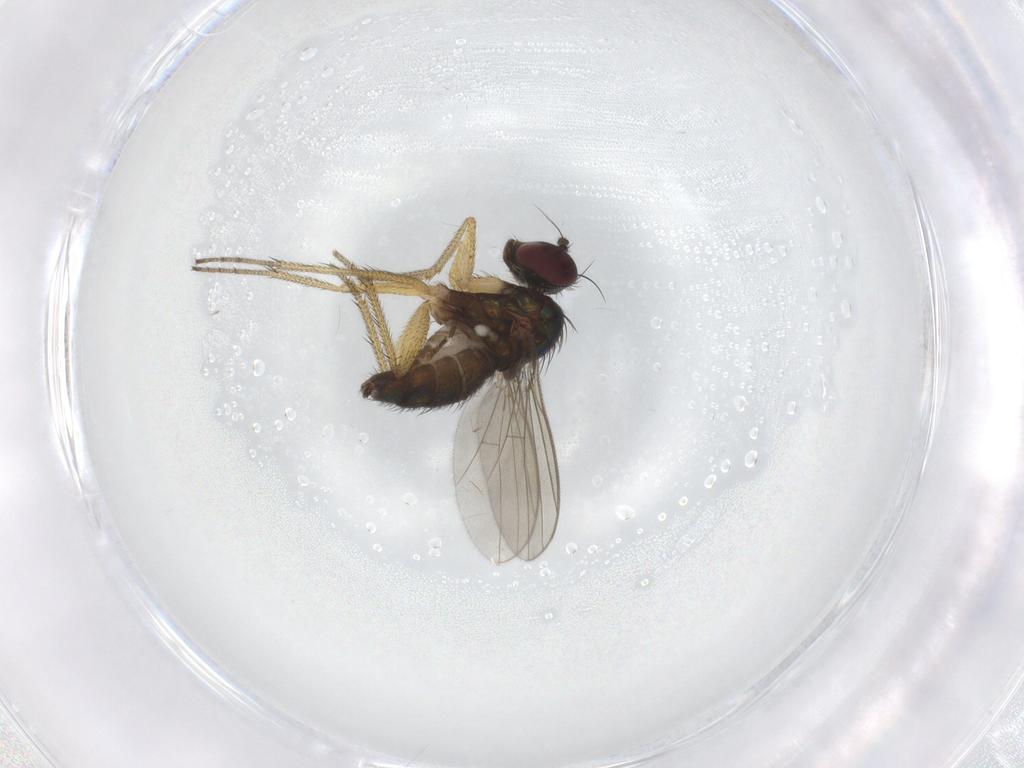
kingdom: Animalia
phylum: Arthropoda
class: Insecta
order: Diptera
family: Dolichopodidae
